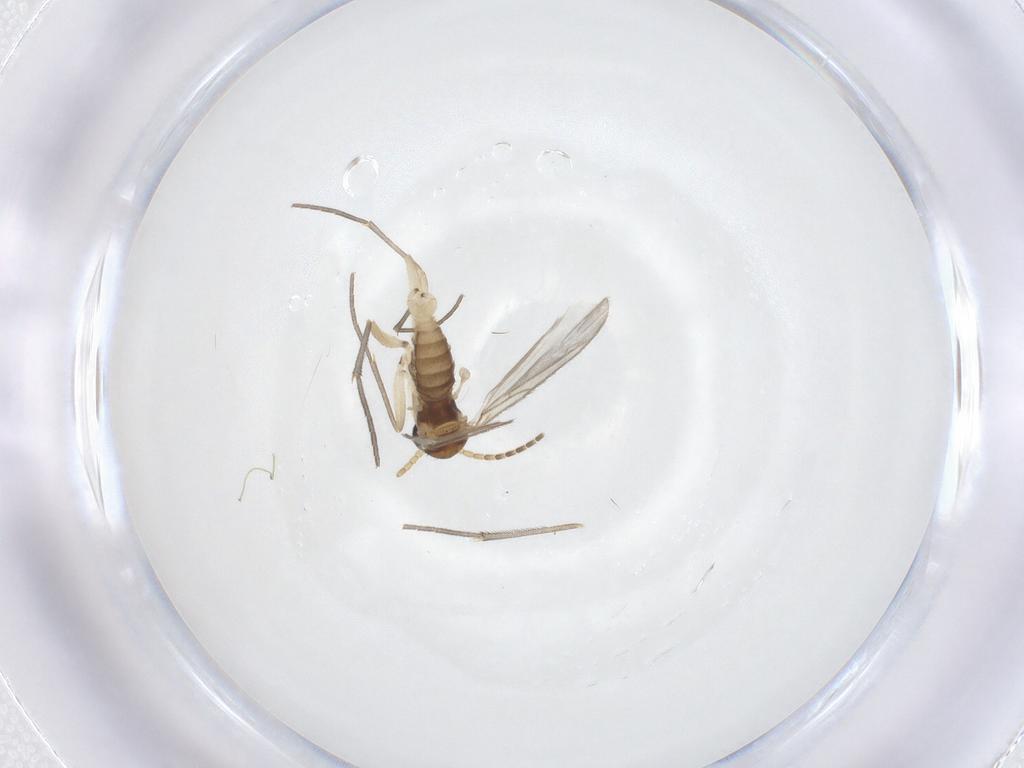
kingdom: Animalia
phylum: Arthropoda
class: Insecta
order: Diptera
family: Sciaridae
